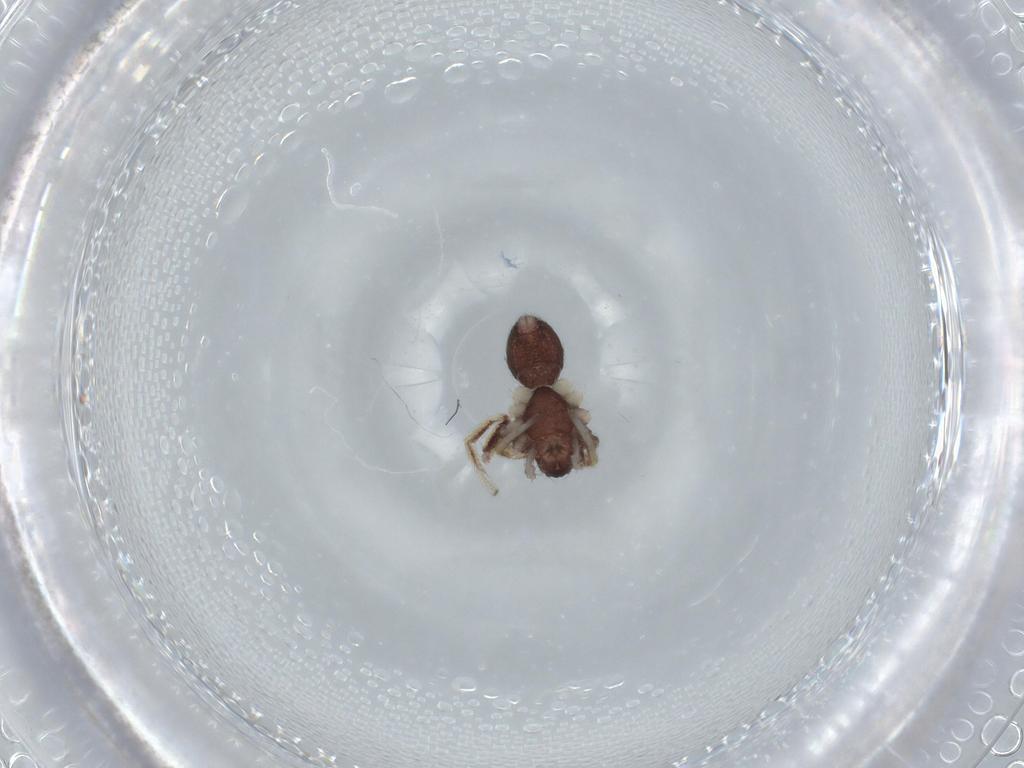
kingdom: Animalia
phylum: Arthropoda
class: Arachnida
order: Araneae
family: Corinnidae
